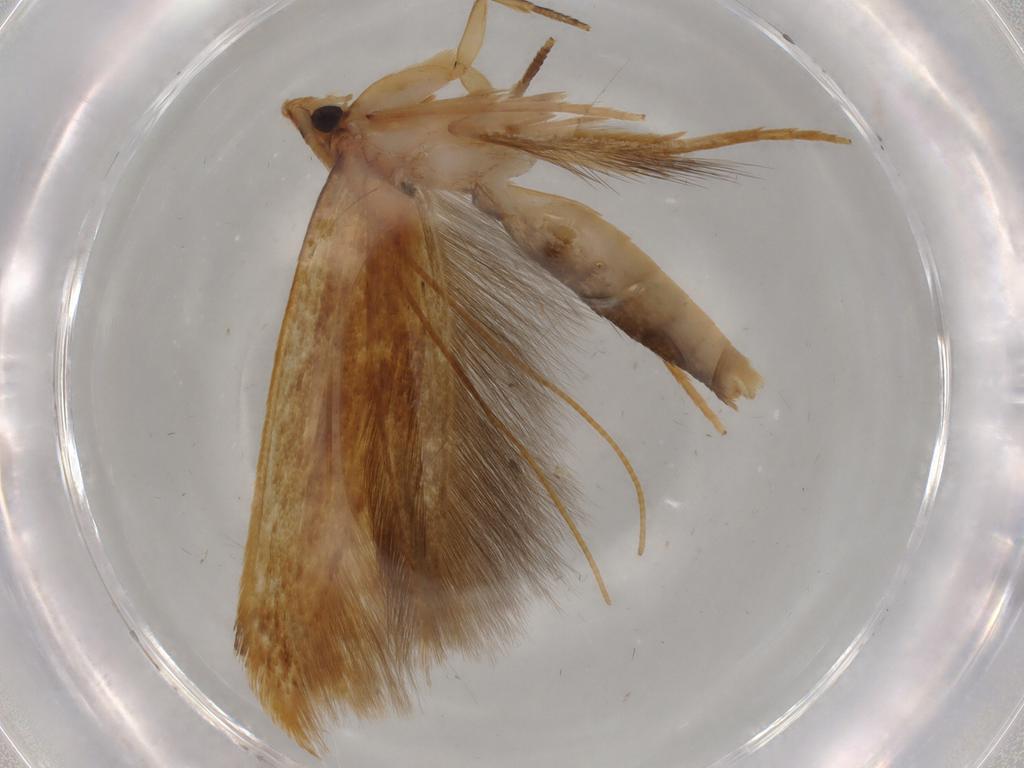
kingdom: Animalia
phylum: Arthropoda
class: Insecta
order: Lepidoptera
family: Tineidae
